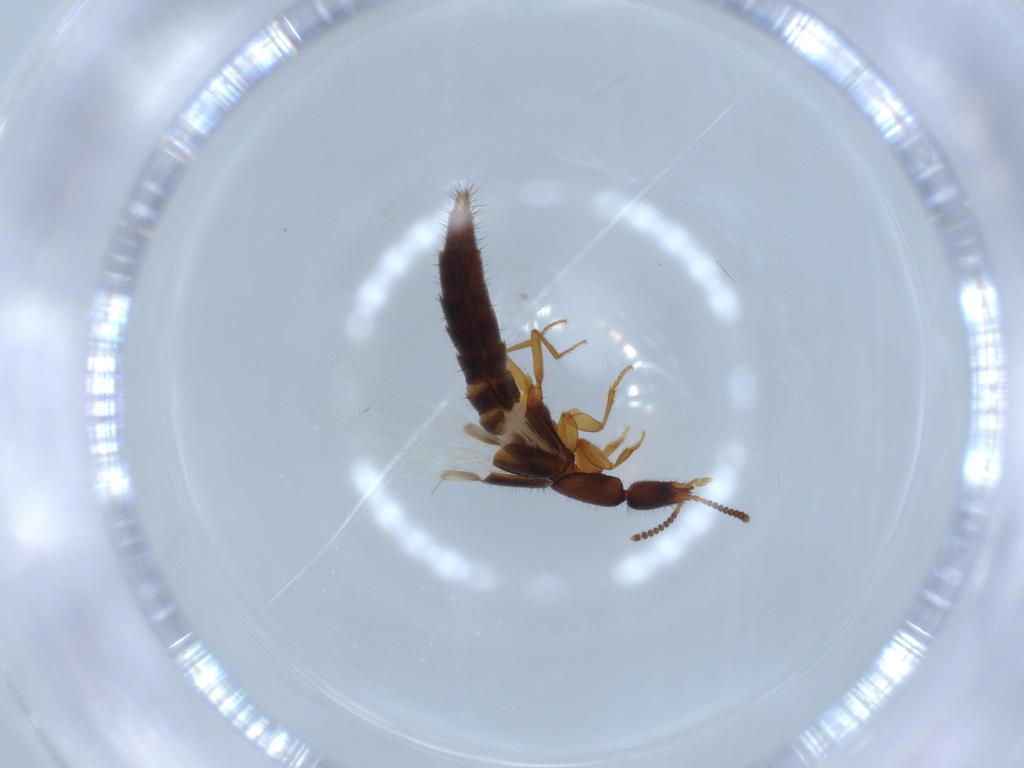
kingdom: Animalia
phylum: Arthropoda
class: Insecta
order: Coleoptera
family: Staphylinidae
